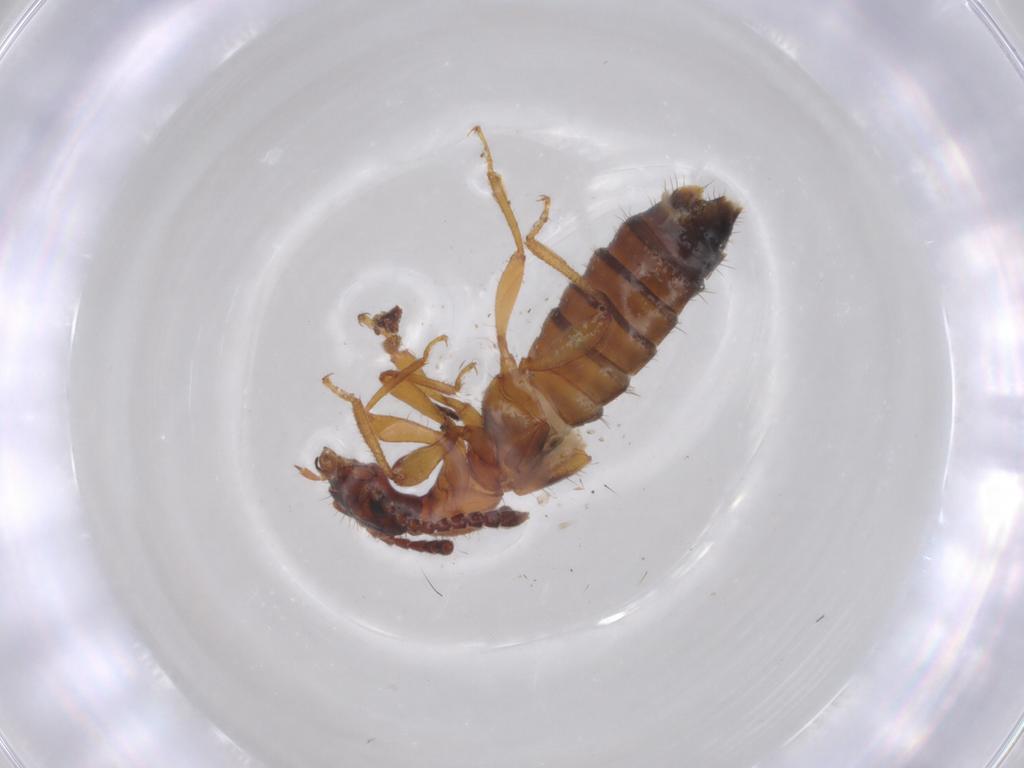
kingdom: Animalia
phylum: Arthropoda
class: Insecta
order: Coleoptera
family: Staphylinidae
